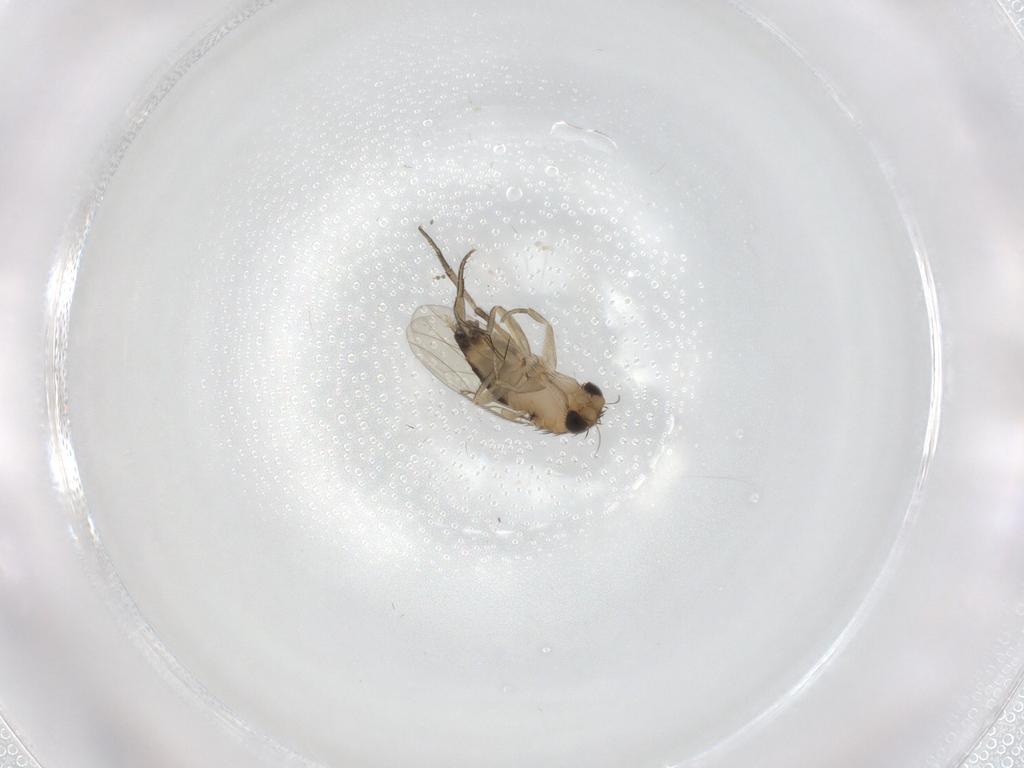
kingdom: Animalia
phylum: Arthropoda
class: Insecta
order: Diptera
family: Phoridae
